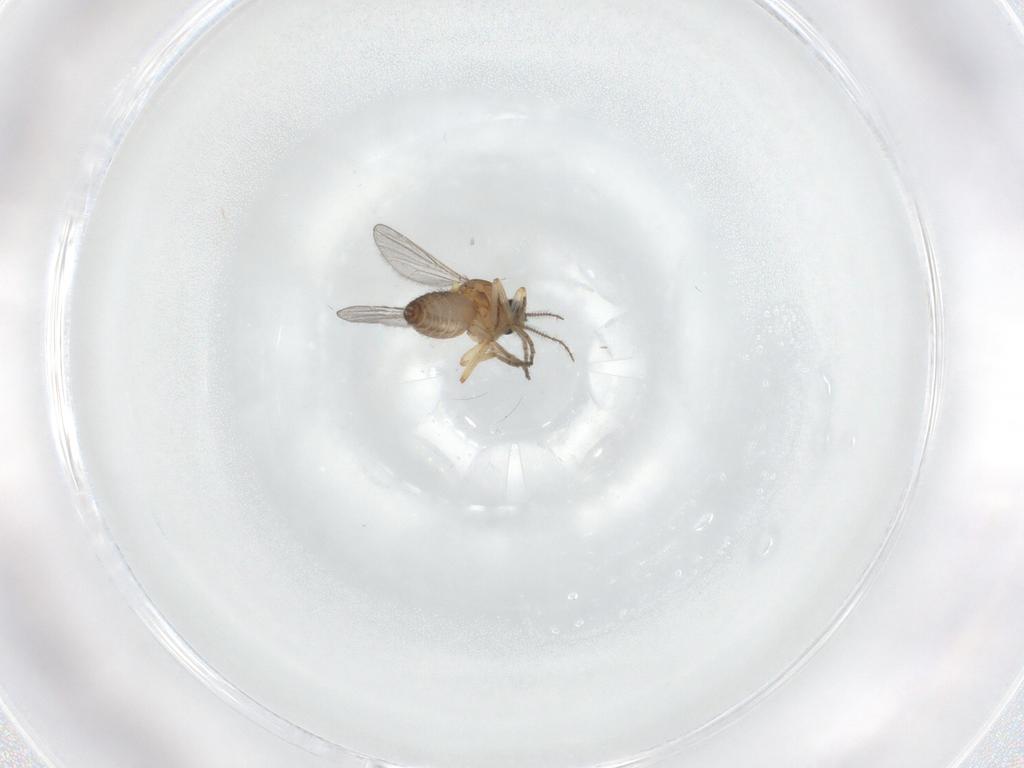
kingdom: Animalia
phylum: Arthropoda
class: Insecta
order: Diptera
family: Ceratopogonidae
